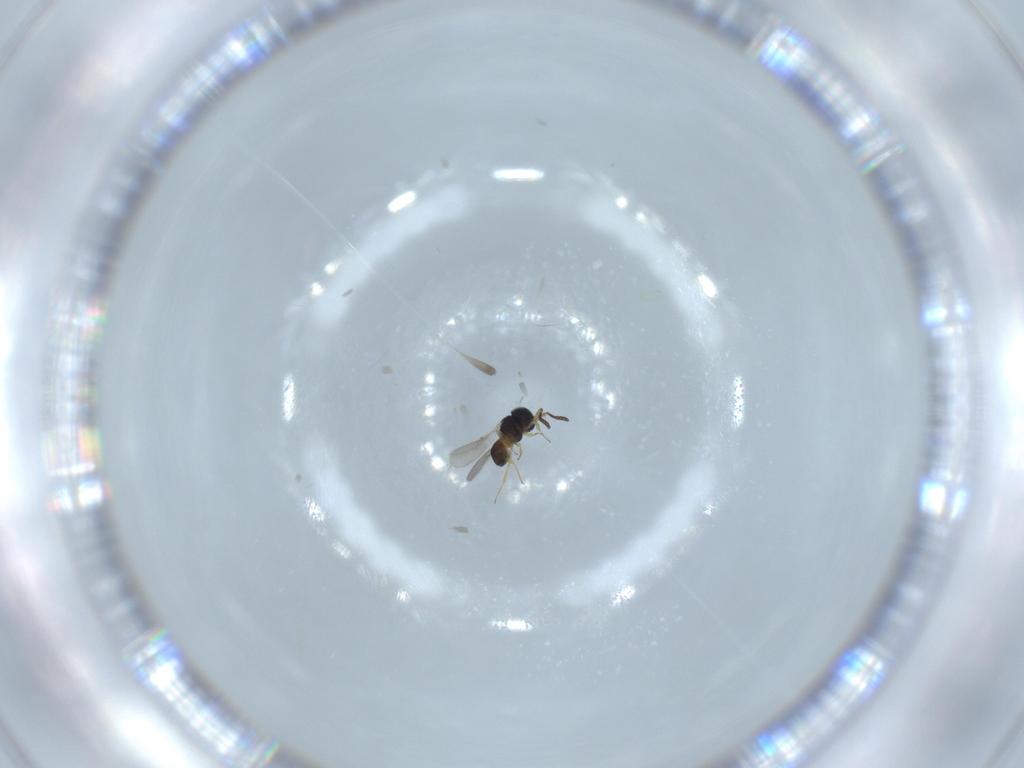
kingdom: Animalia
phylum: Arthropoda
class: Insecta
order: Hymenoptera
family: Scelionidae
